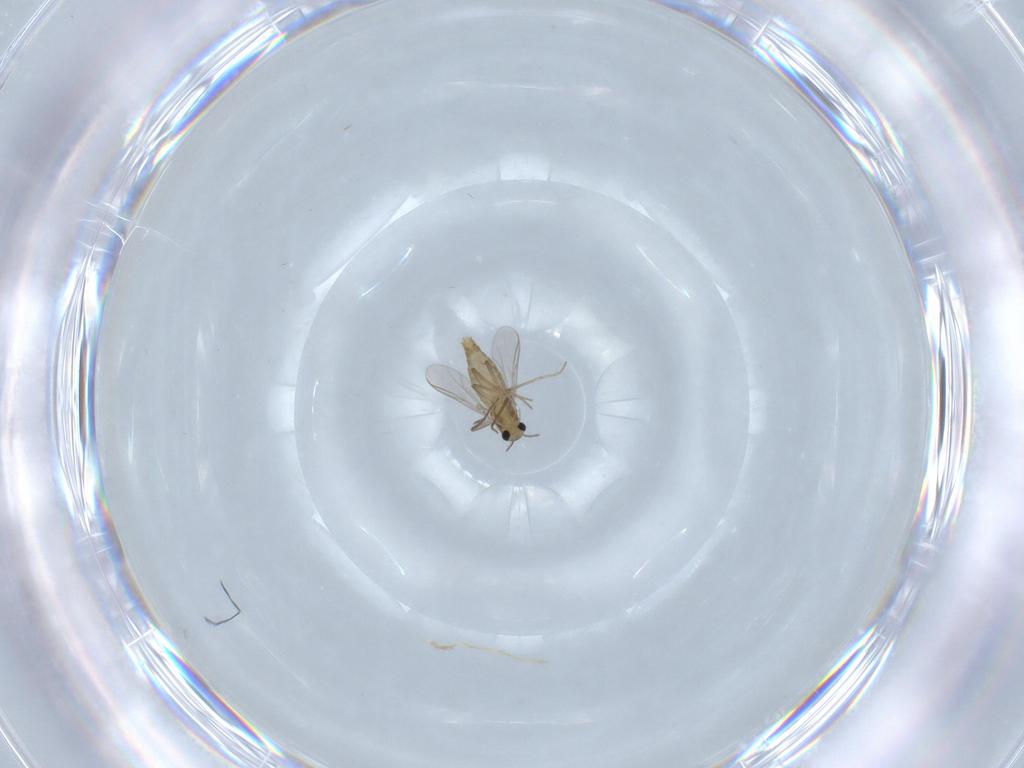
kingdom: Animalia
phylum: Arthropoda
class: Insecta
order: Diptera
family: Chironomidae
